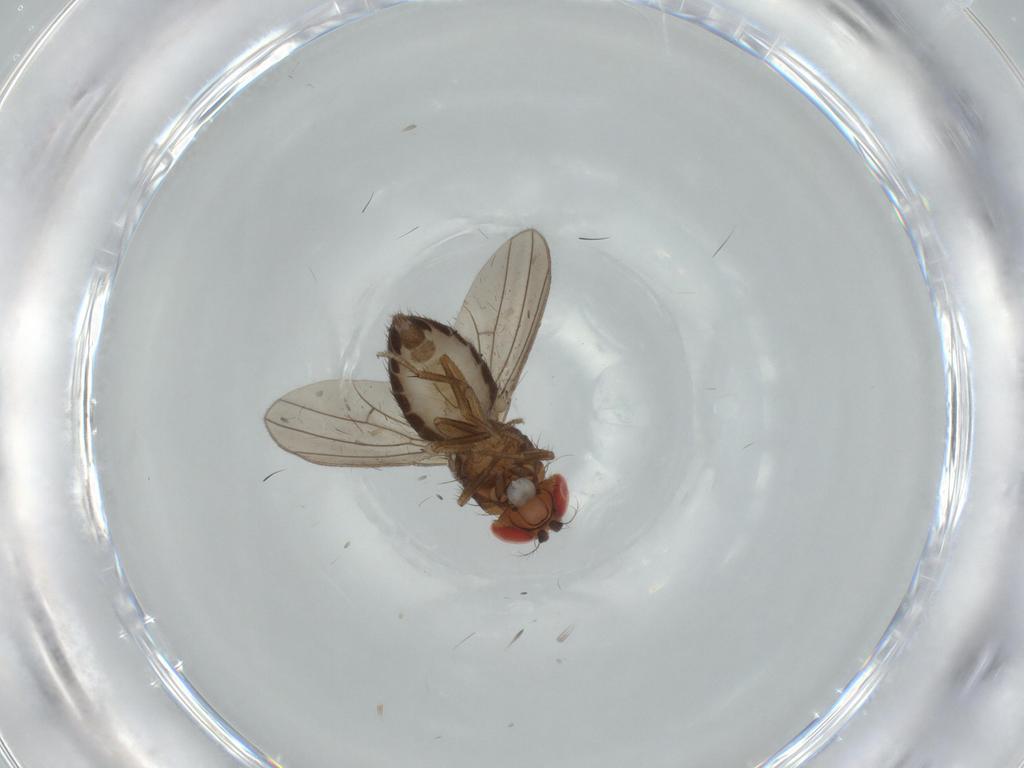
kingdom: Animalia
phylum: Arthropoda
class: Insecta
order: Diptera
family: Drosophilidae
